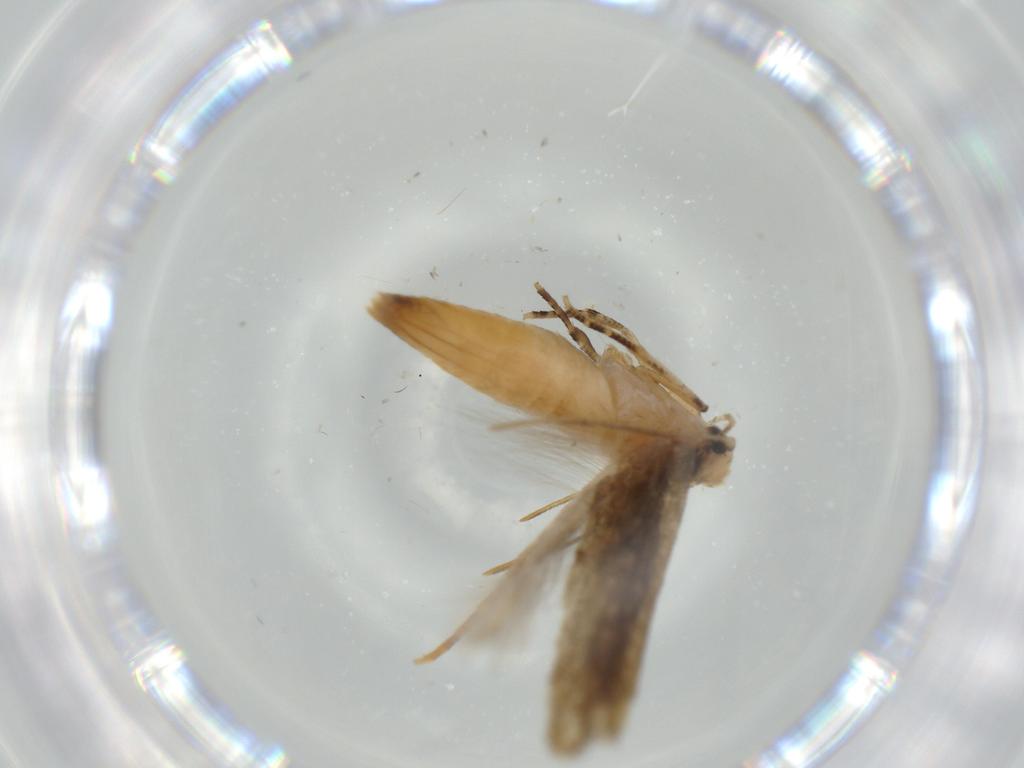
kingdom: Animalia
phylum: Arthropoda
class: Insecta
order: Lepidoptera
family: Cosmopterigidae
